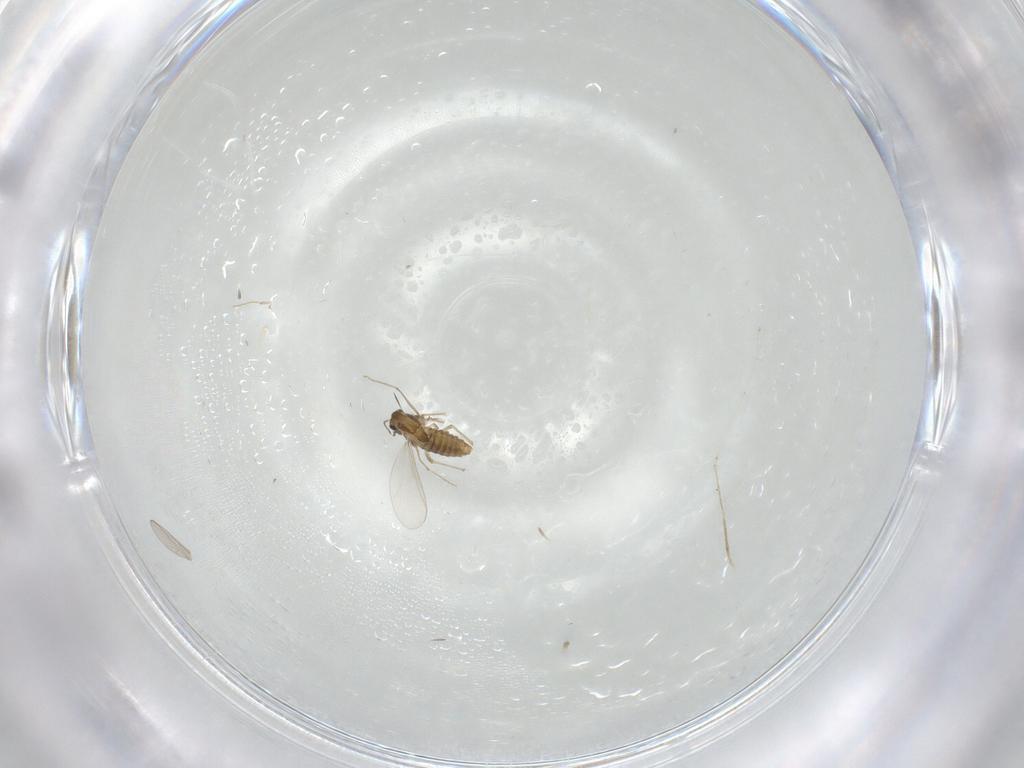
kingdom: Animalia
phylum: Arthropoda
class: Insecta
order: Diptera
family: Chironomidae
